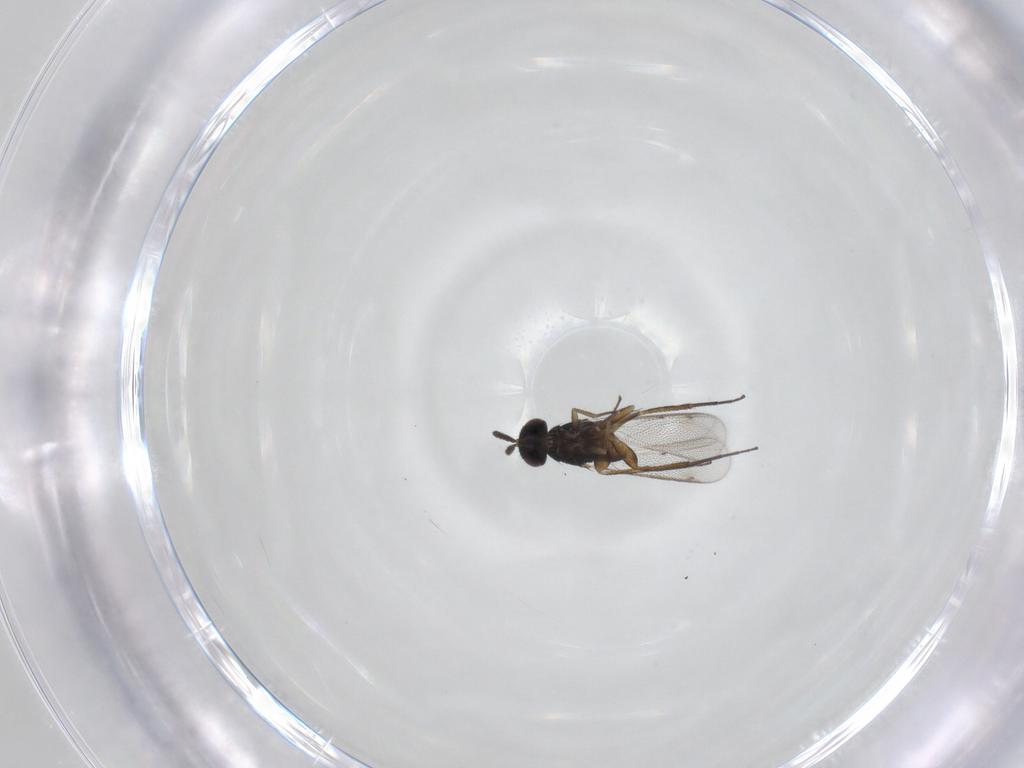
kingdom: Animalia
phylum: Arthropoda
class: Insecta
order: Hymenoptera
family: Eulophidae
